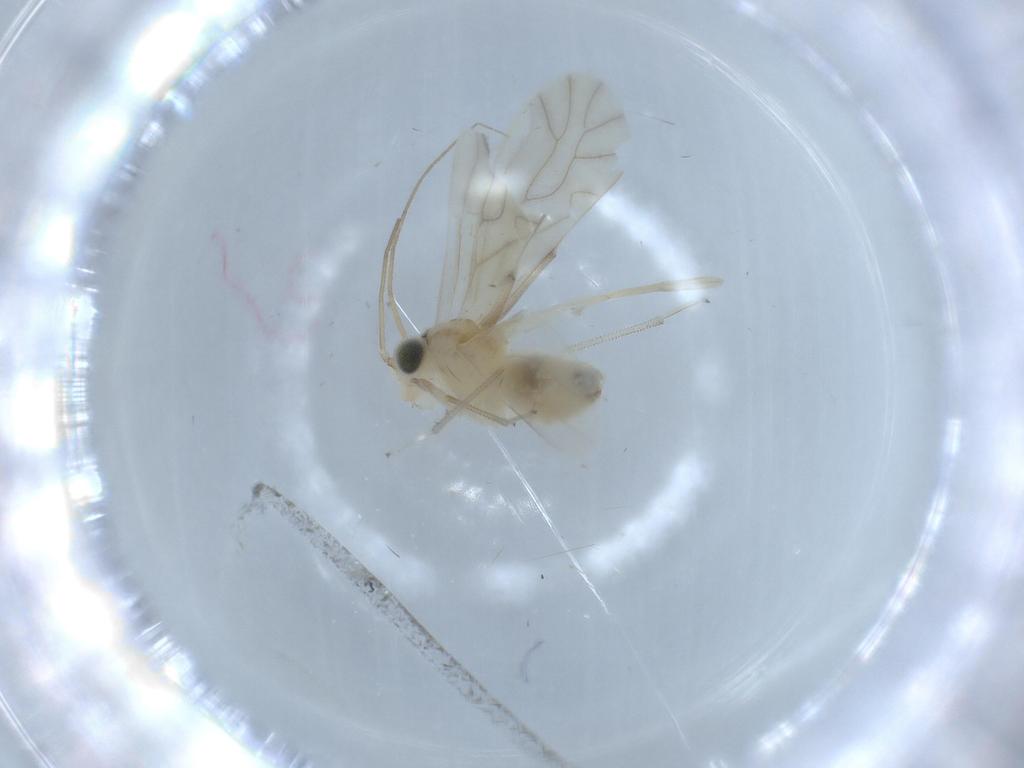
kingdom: Animalia
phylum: Arthropoda
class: Insecta
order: Psocodea
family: Caeciliusidae
